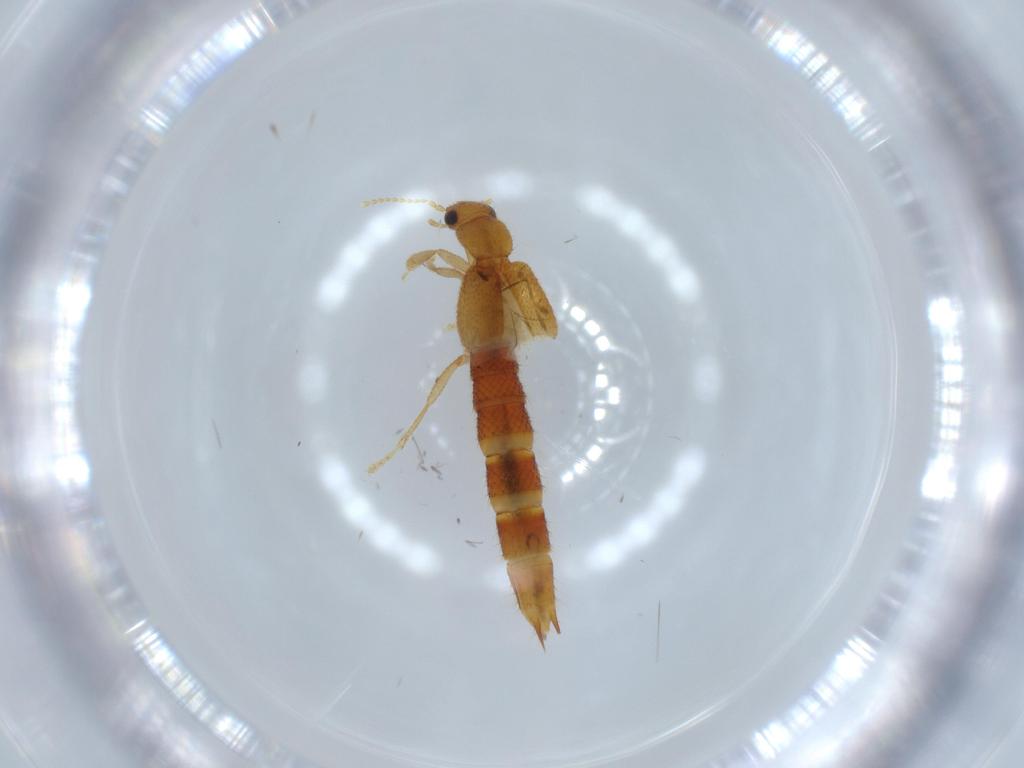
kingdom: Animalia
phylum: Arthropoda
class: Insecta
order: Coleoptera
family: Staphylinidae
